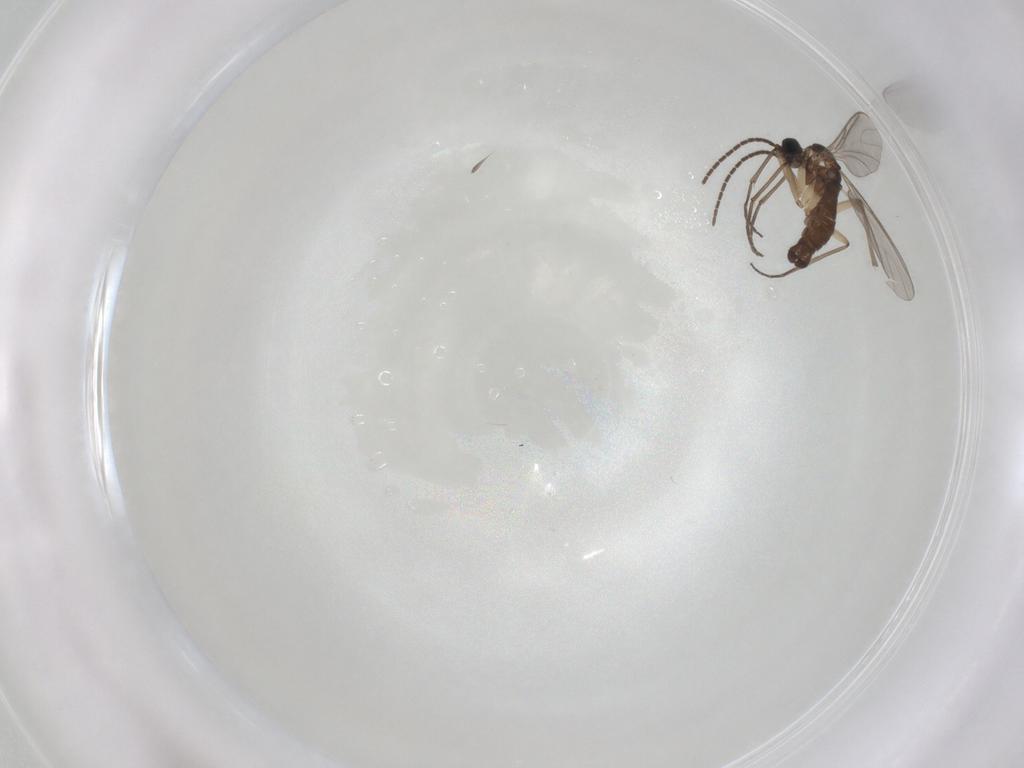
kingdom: Animalia
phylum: Arthropoda
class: Insecta
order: Diptera
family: Sciaridae
